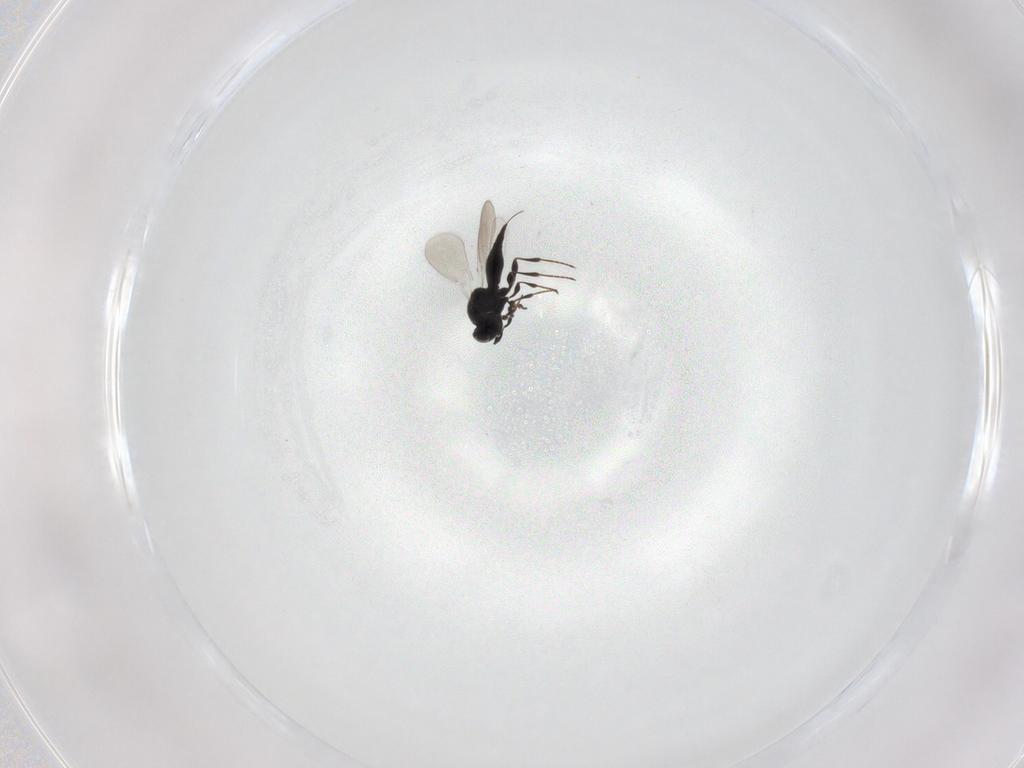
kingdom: Animalia
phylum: Arthropoda
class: Insecta
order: Hymenoptera
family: Platygastridae
